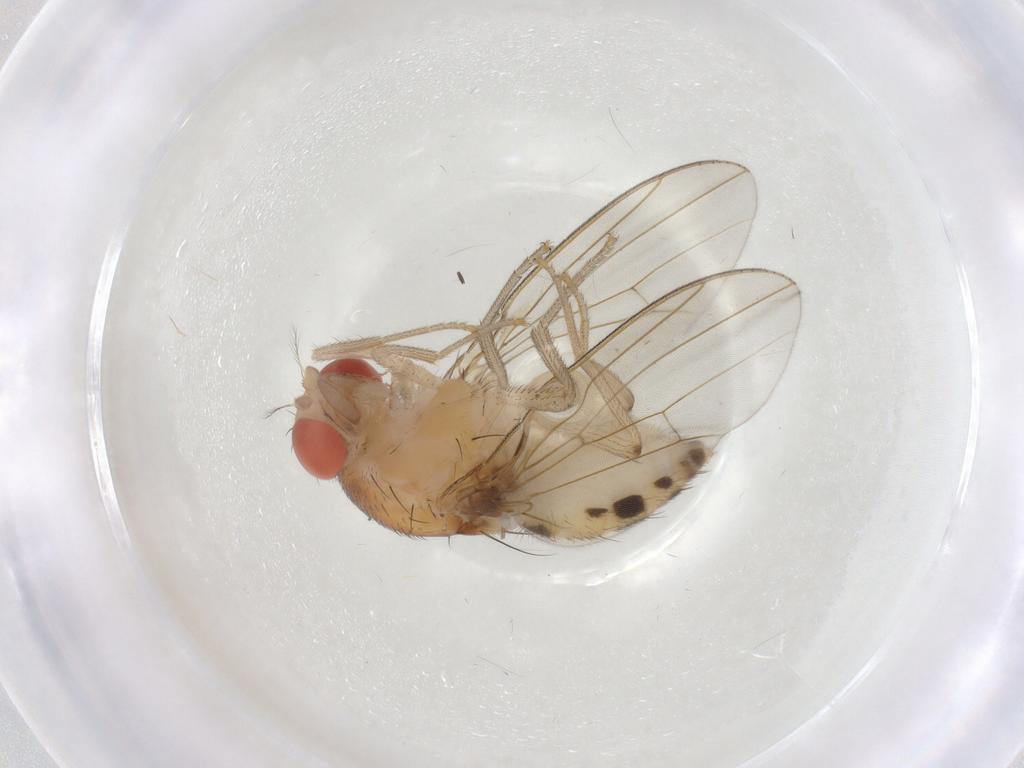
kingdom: Animalia
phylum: Arthropoda
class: Insecta
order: Diptera
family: Drosophilidae
